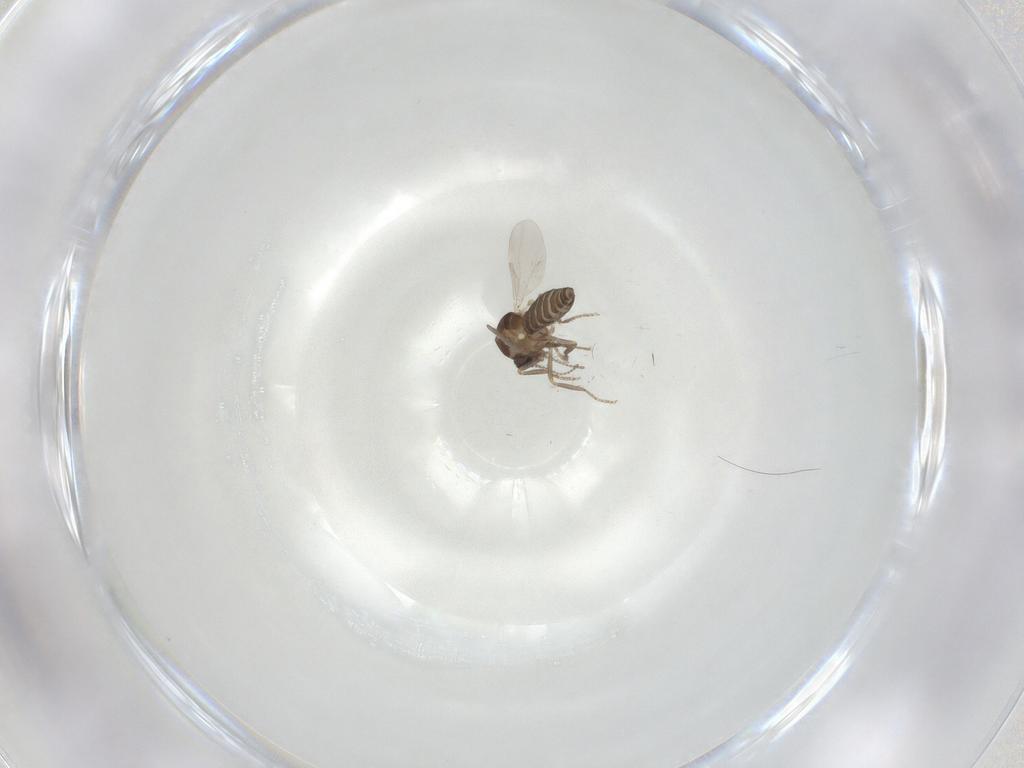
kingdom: Animalia
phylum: Arthropoda
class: Insecta
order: Diptera
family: Ceratopogonidae
